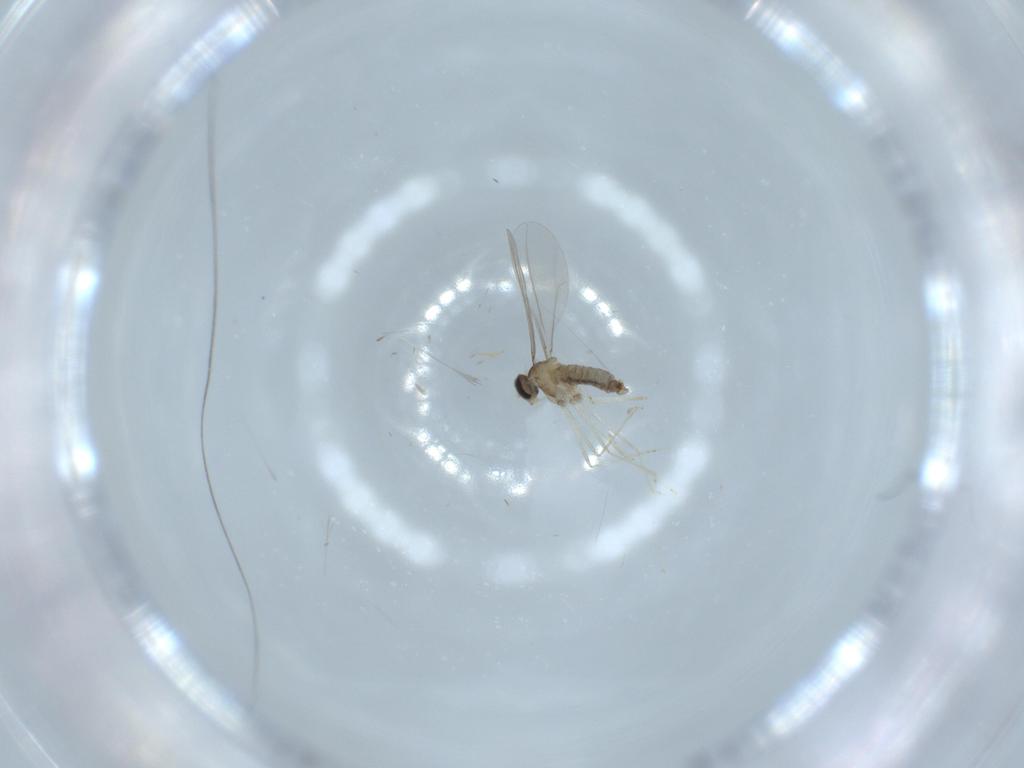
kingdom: Animalia
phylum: Arthropoda
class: Insecta
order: Diptera
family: Cecidomyiidae
